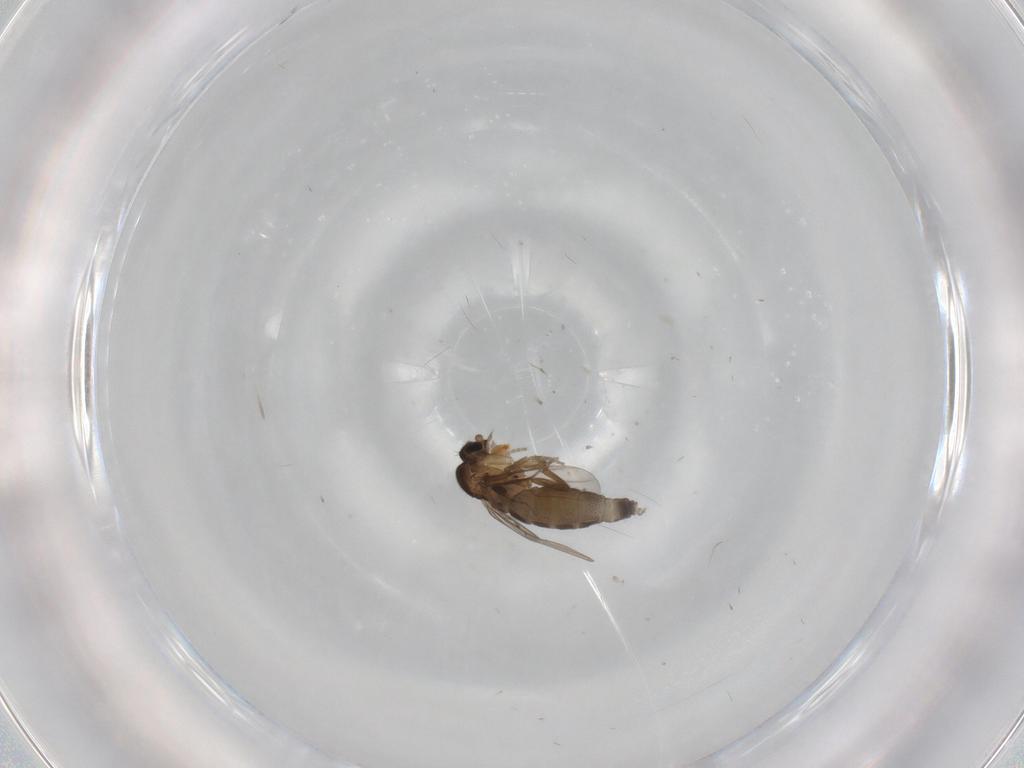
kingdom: Animalia
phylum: Arthropoda
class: Insecta
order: Diptera
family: Phoridae
